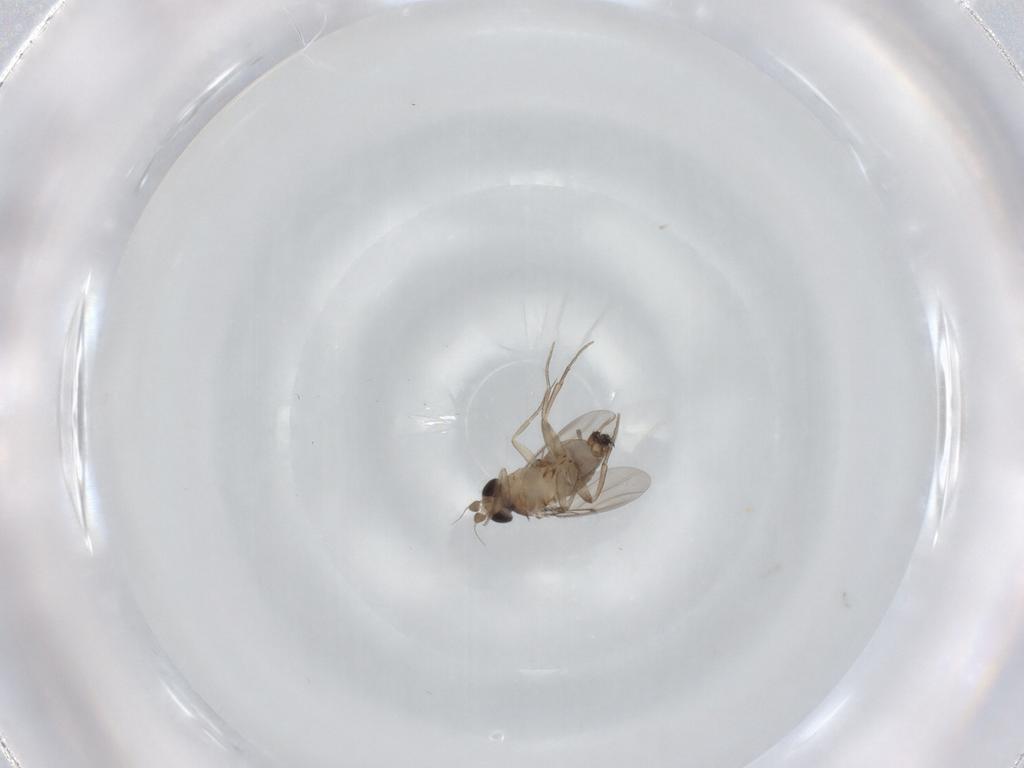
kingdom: Animalia
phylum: Arthropoda
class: Insecta
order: Diptera
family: Phoridae
